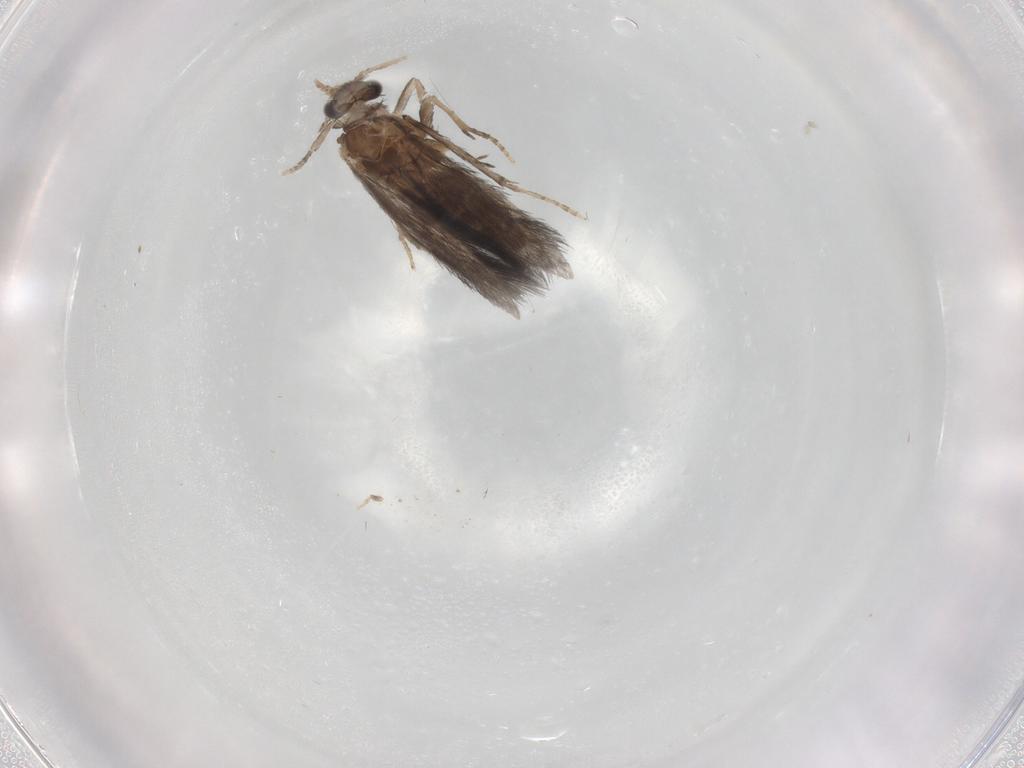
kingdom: Animalia
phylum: Arthropoda
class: Insecta
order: Trichoptera
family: Hydroptilidae
